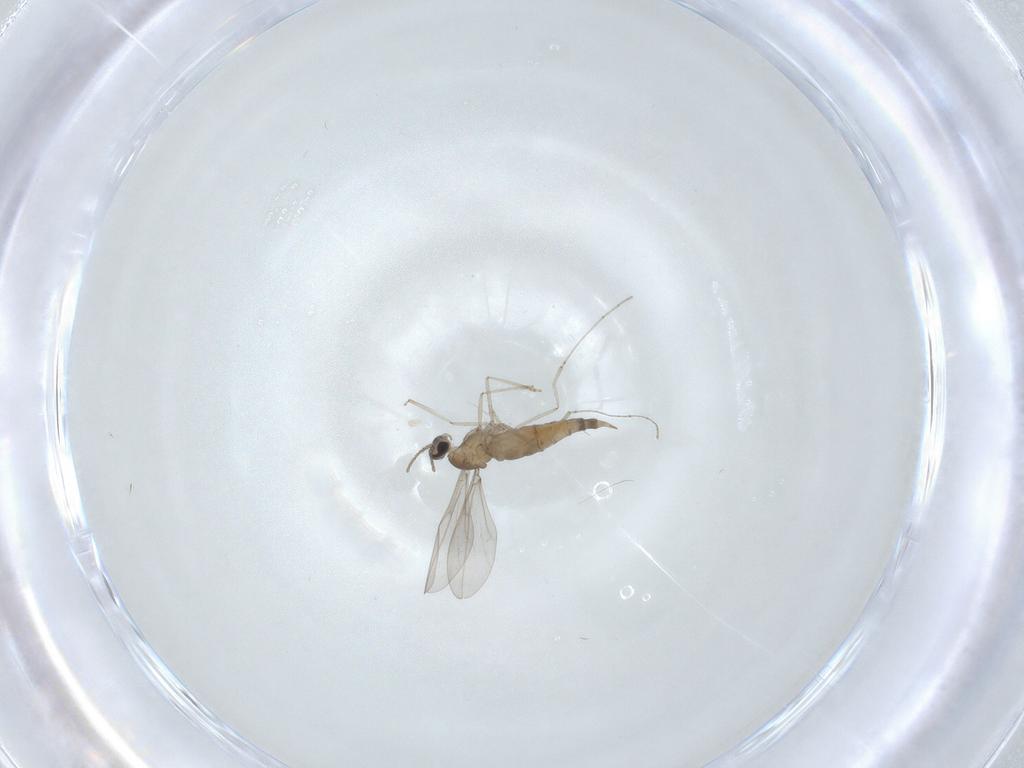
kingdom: Animalia
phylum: Arthropoda
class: Insecta
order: Diptera
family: Cecidomyiidae
